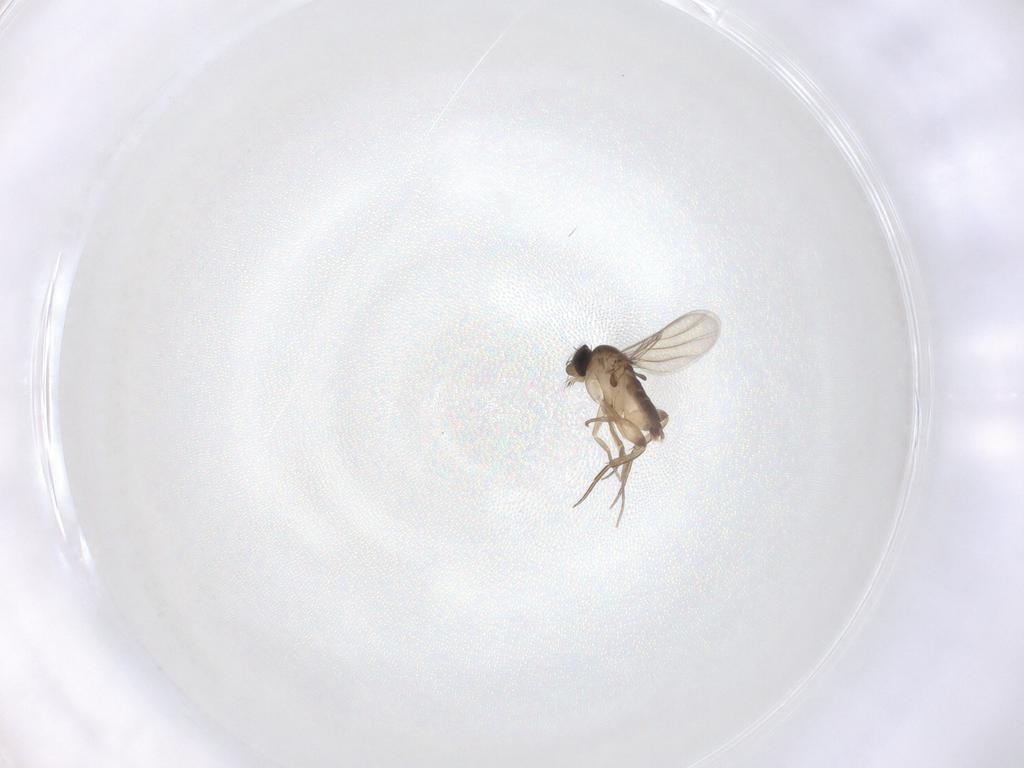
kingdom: Animalia
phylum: Arthropoda
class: Insecta
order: Diptera
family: Phoridae
